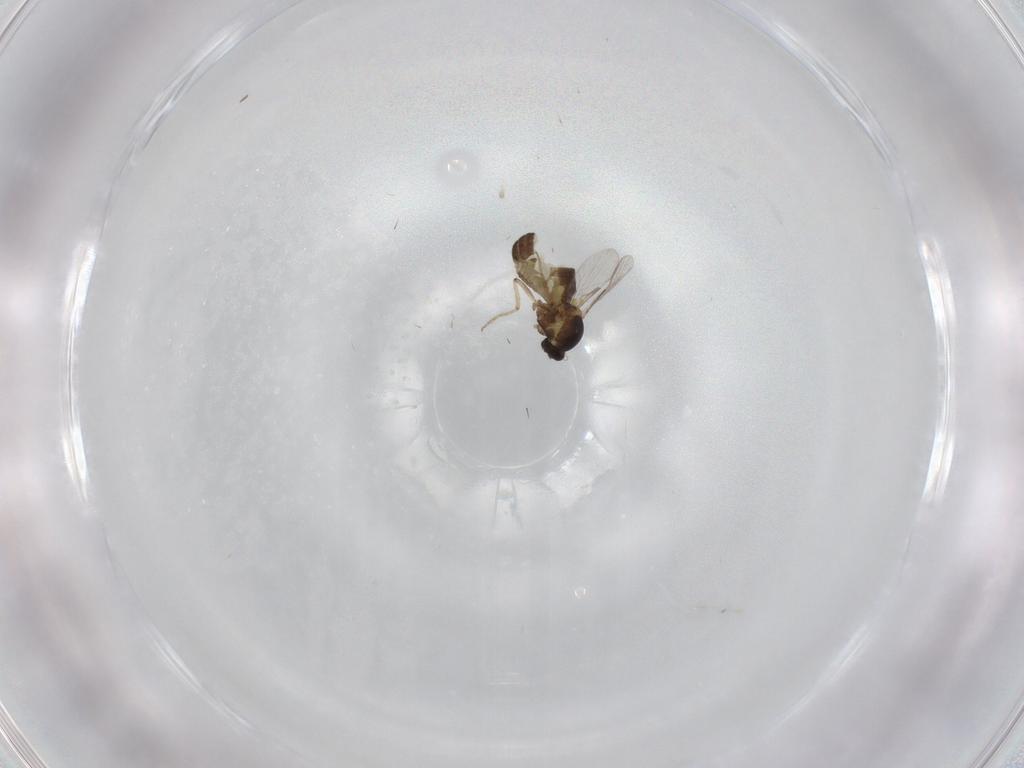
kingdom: Animalia
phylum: Arthropoda
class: Insecta
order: Diptera
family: Ceratopogonidae
